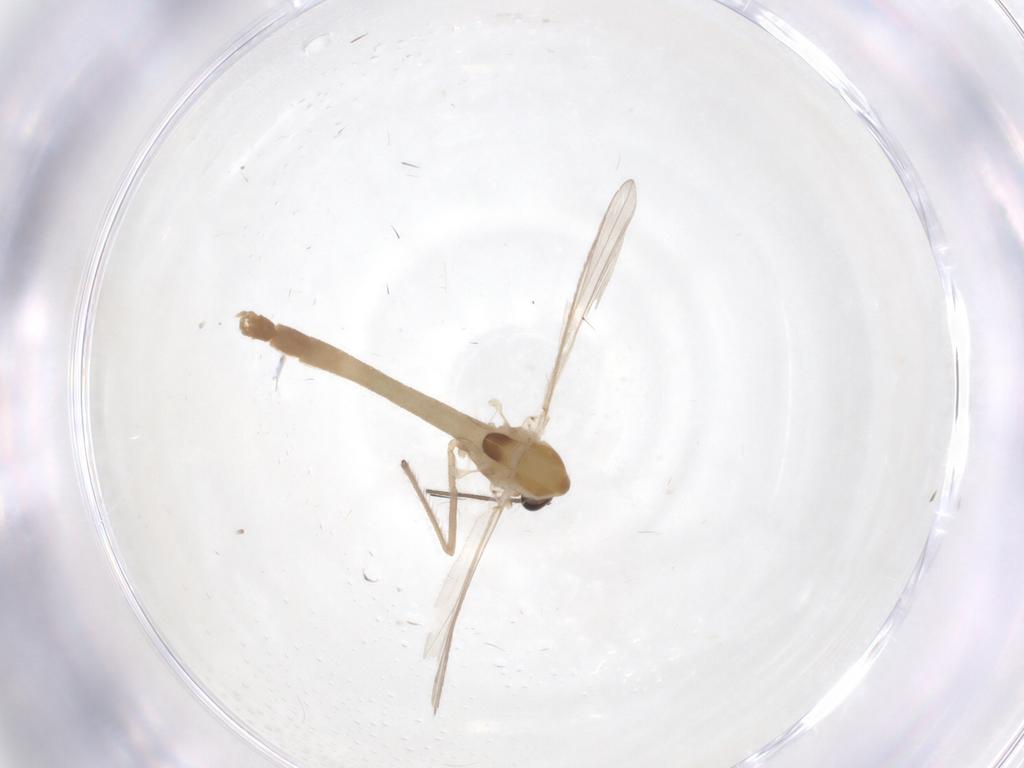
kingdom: Animalia
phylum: Arthropoda
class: Insecta
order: Diptera
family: Chironomidae
